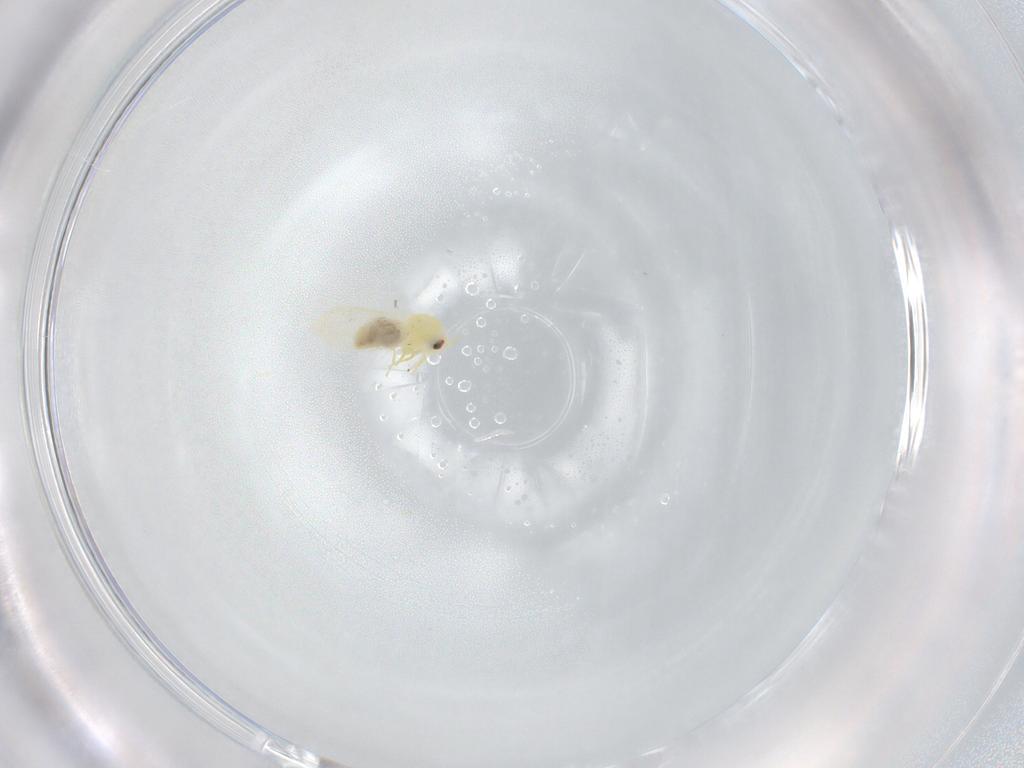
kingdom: Animalia
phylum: Arthropoda
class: Insecta
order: Hemiptera
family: Aleyrodidae
